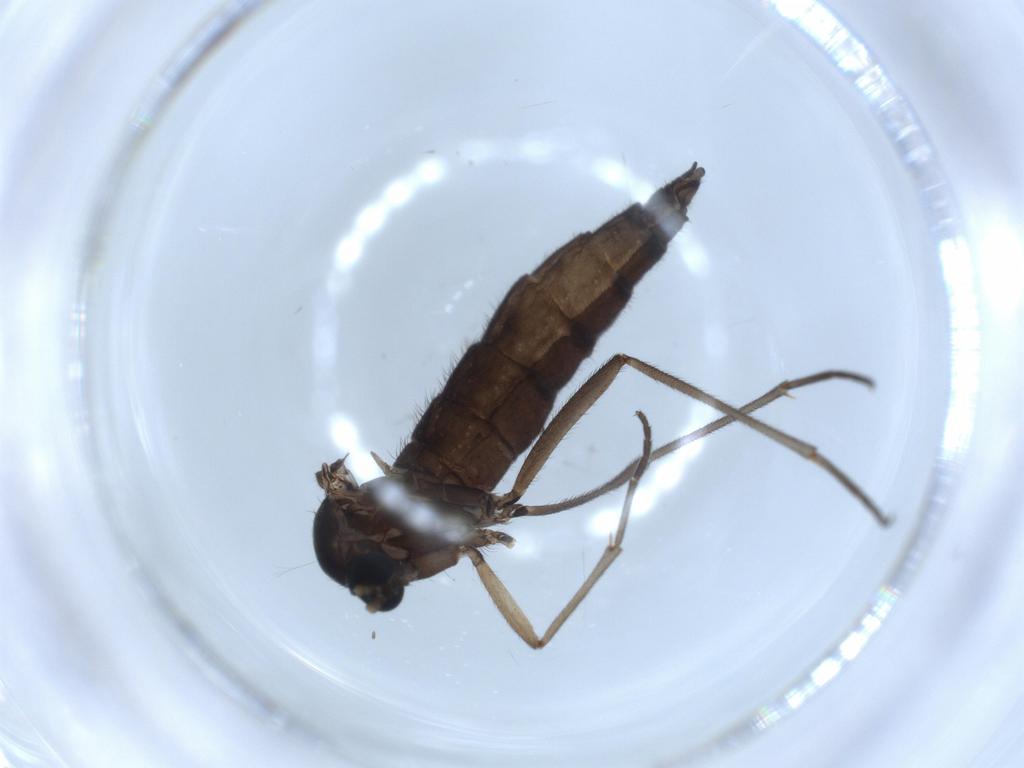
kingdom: Animalia
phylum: Arthropoda
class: Insecta
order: Diptera
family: Sciaridae
